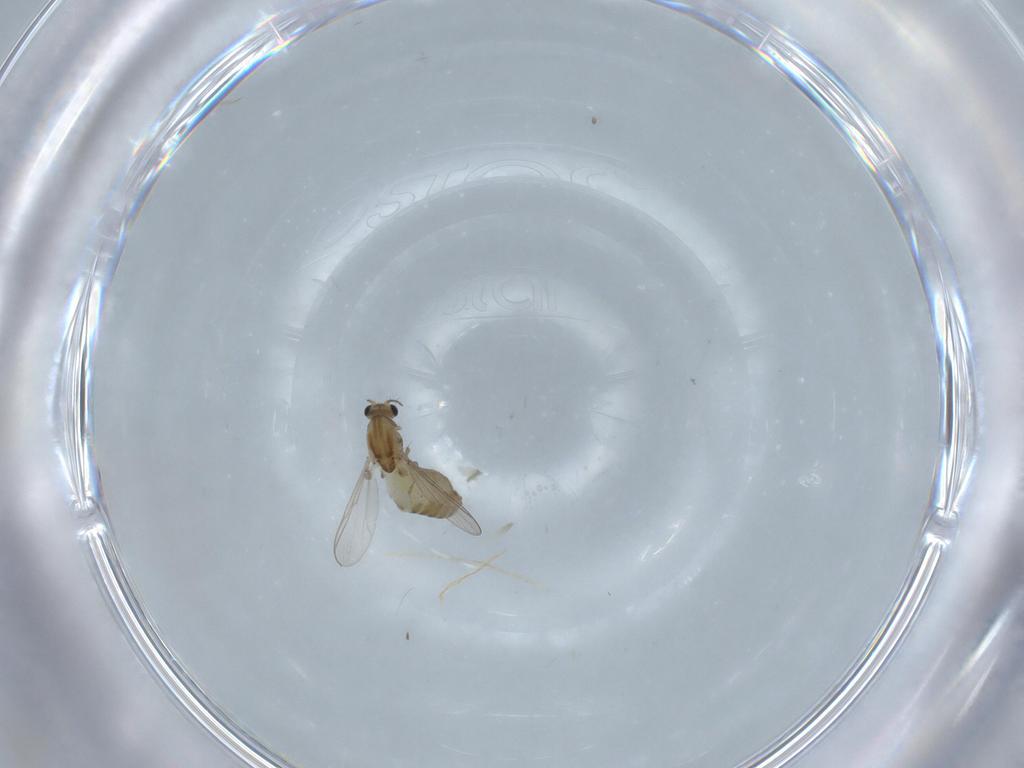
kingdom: Animalia
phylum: Arthropoda
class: Insecta
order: Diptera
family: Chironomidae
